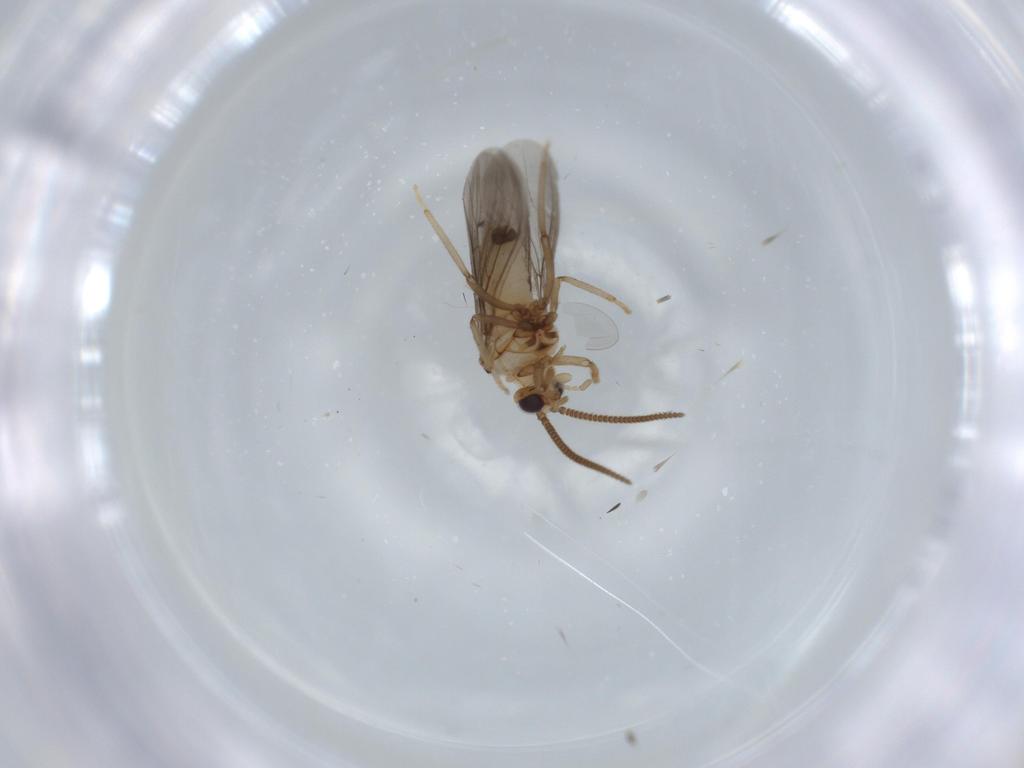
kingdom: Animalia
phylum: Arthropoda
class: Insecta
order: Neuroptera
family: Coniopterygidae
